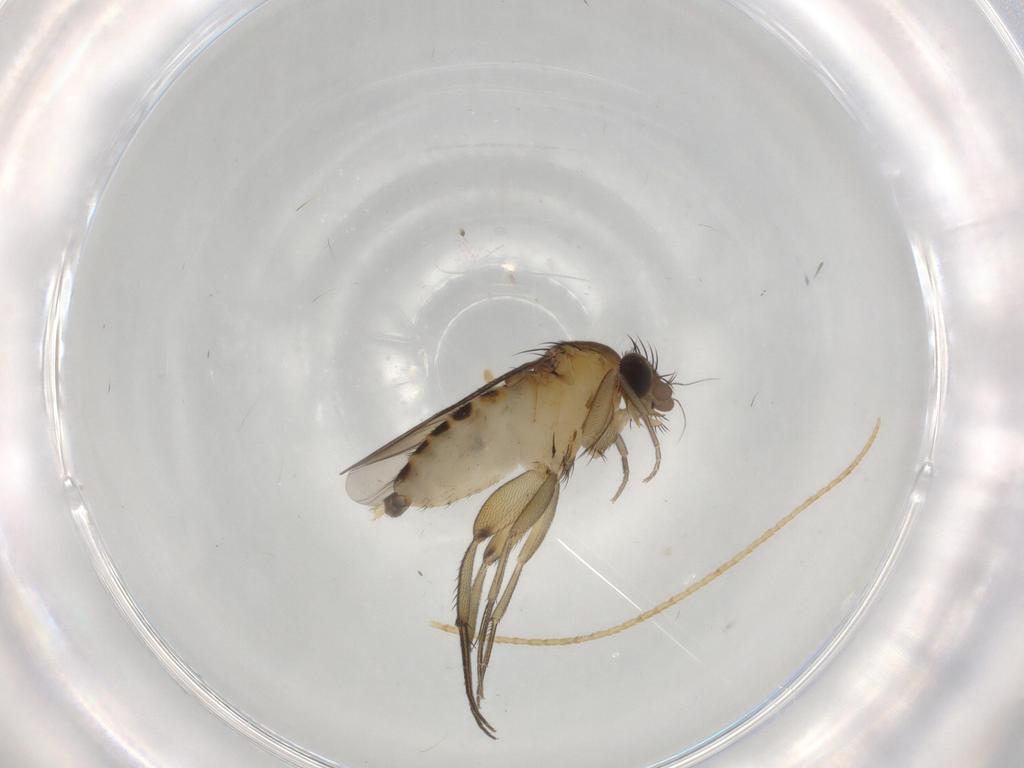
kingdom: Animalia
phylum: Arthropoda
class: Insecta
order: Diptera
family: Phoridae
